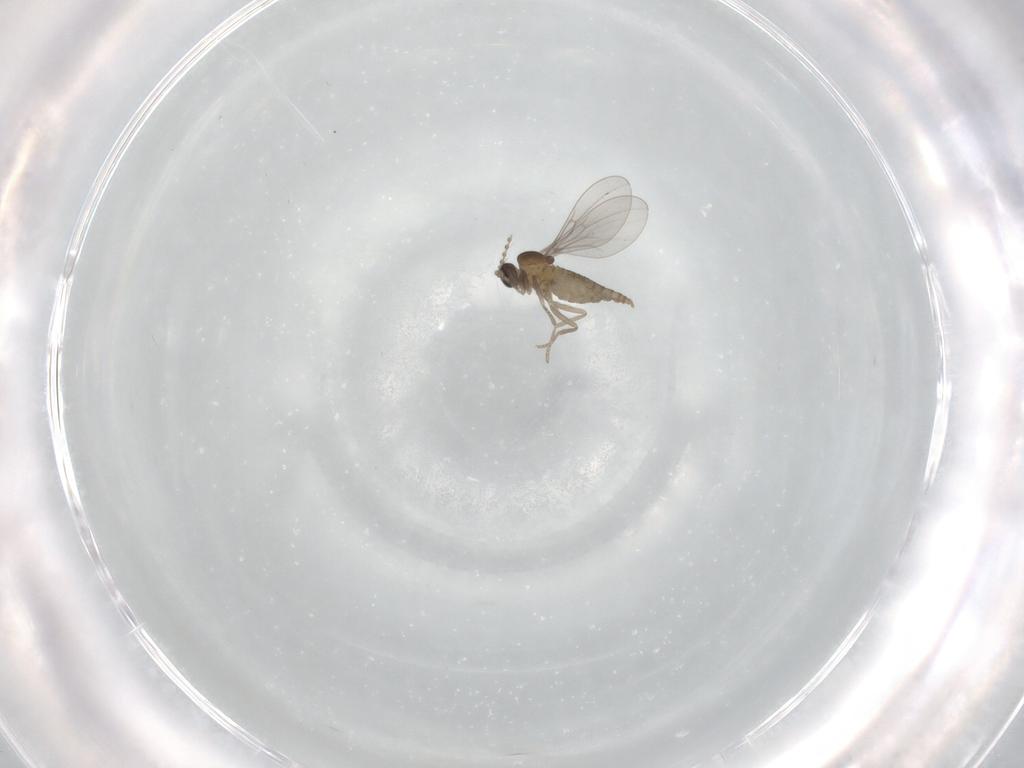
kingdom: Animalia
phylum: Arthropoda
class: Insecta
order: Diptera
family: Cecidomyiidae
